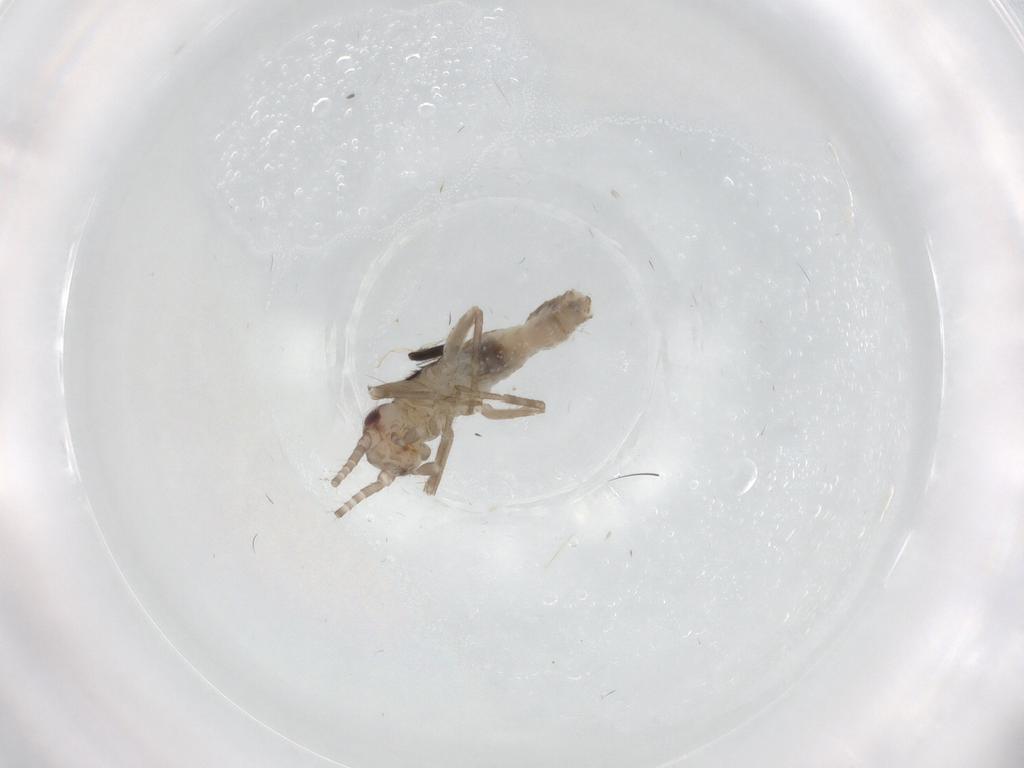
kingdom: Animalia
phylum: Arthropoda
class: Insecta
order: Orthoptera
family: Mogoplistidae
